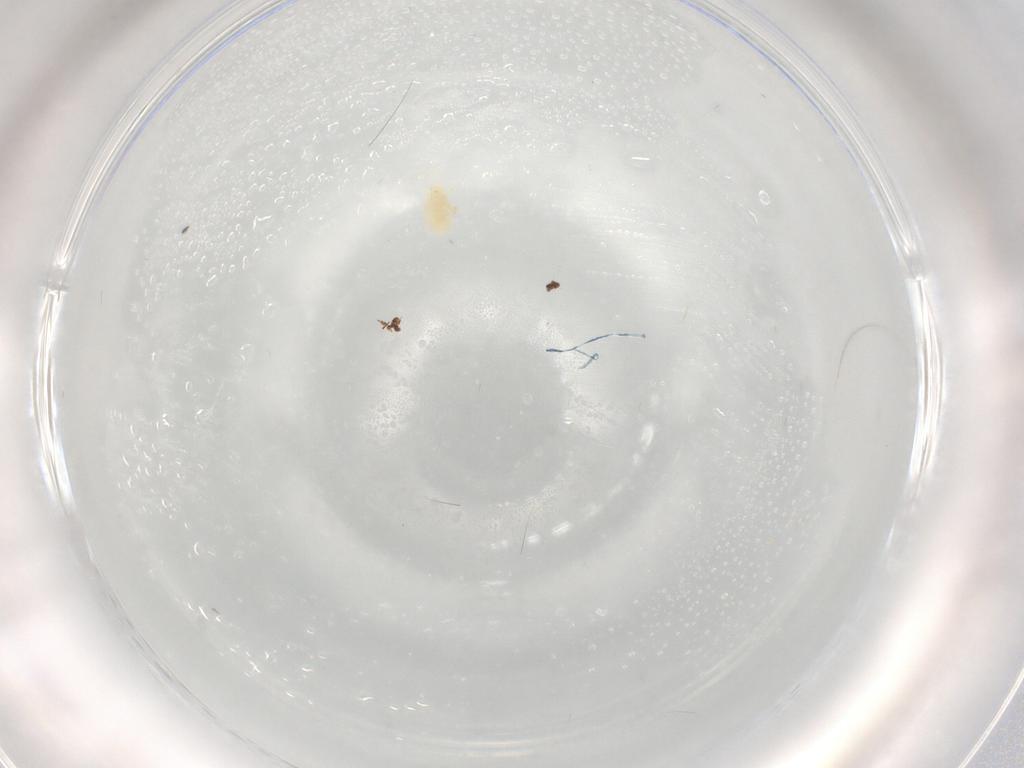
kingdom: Animalia
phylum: Arthropoda
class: Arachnida
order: Trombidiformes
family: Eupodidae
